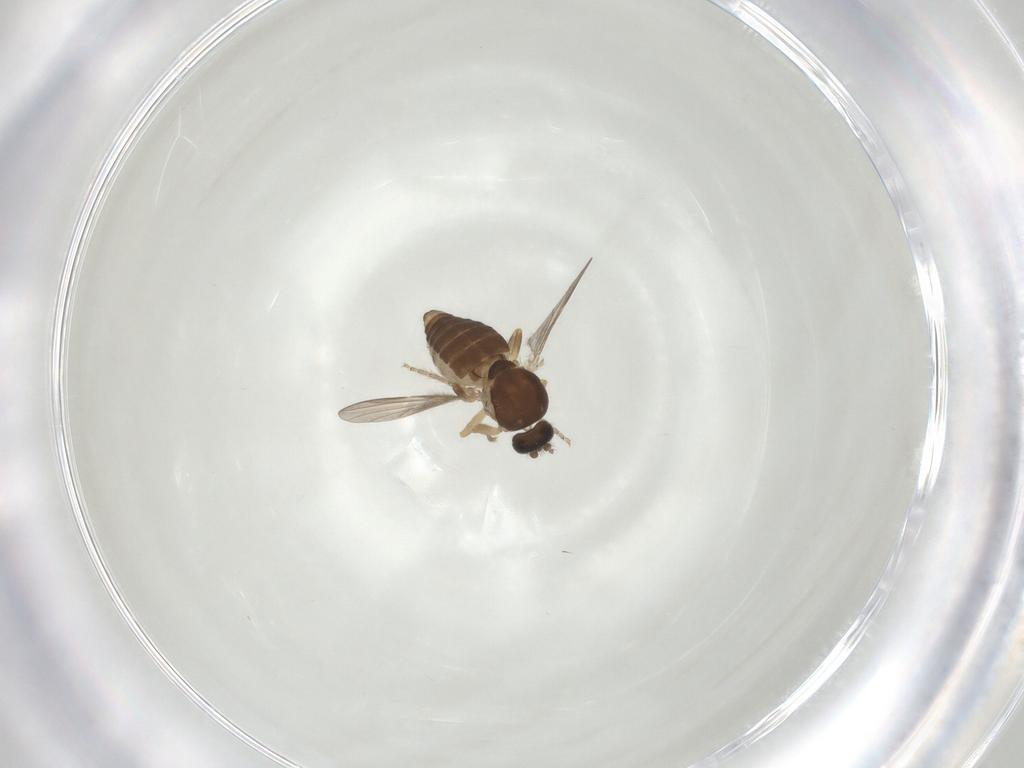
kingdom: Animalia
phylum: Arthropoda
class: Insecta
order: Diptera
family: Ceratopogonidae
